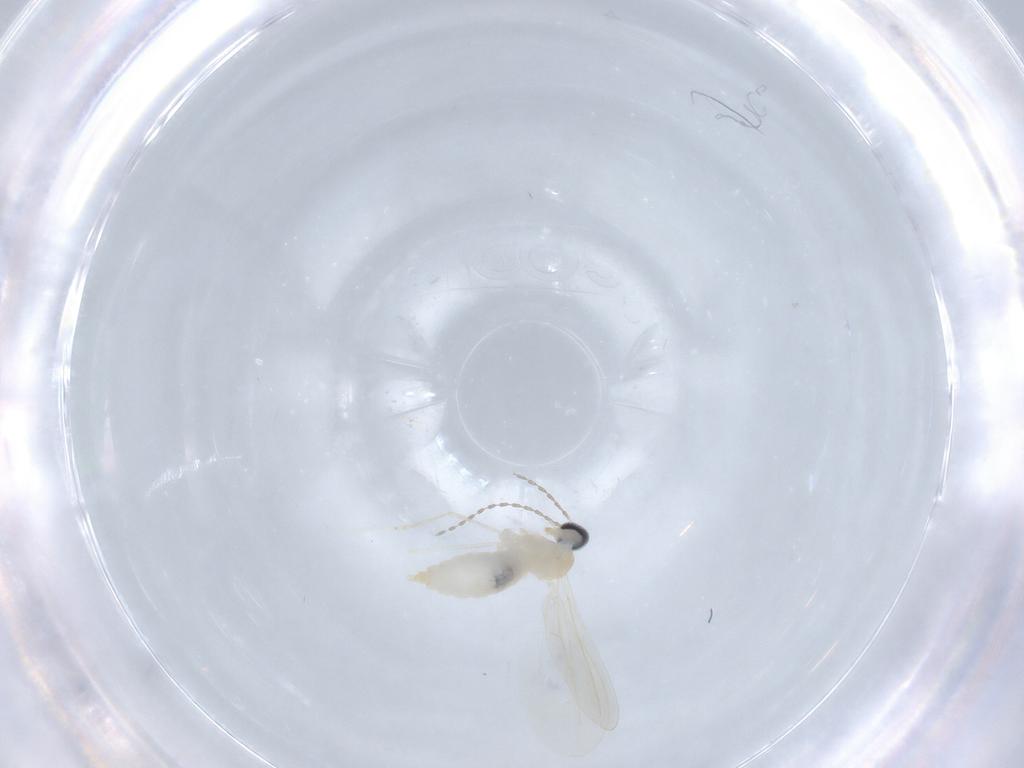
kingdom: Animalia
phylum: Arthropoda
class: Insecta
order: Diptera
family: Cecidomyiidae
